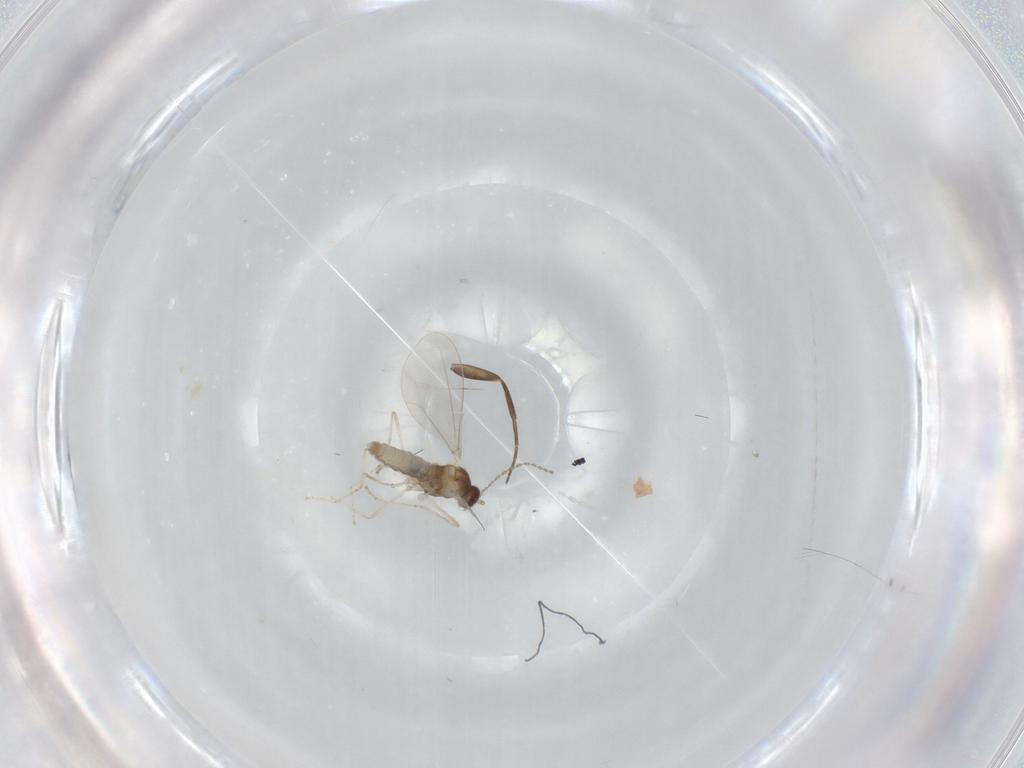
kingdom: Animalia
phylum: Arthropoda
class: Insecta
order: Diptera
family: Cecidomyiidae
